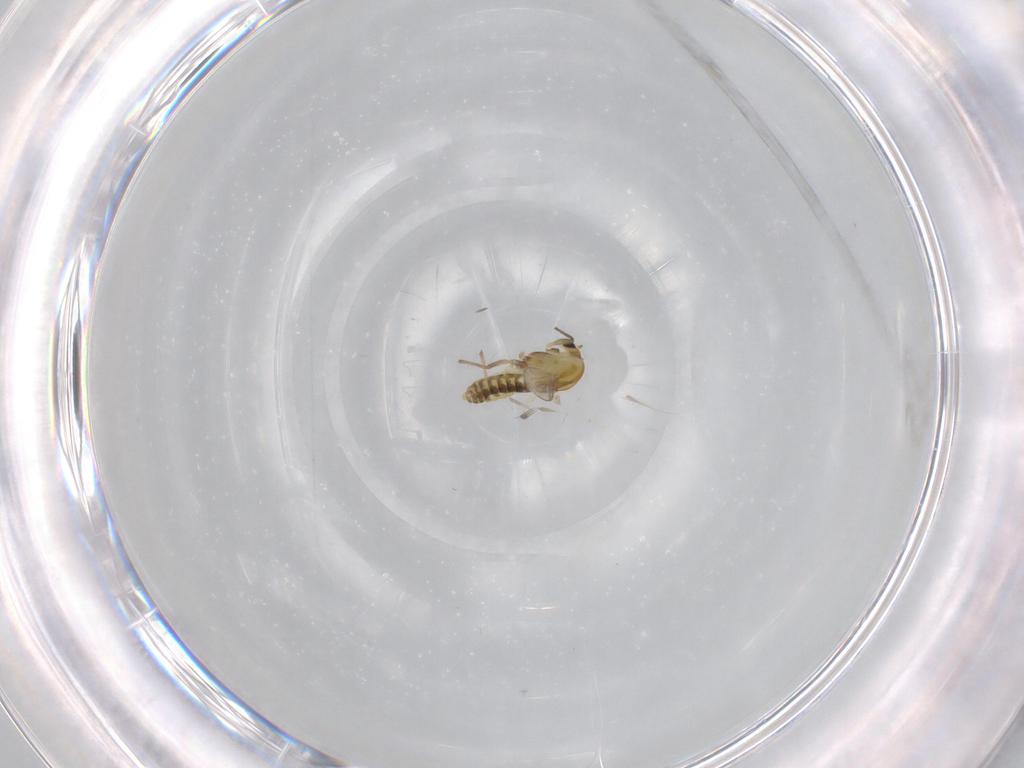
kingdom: Animalia
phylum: Arthropoda
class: Insecta
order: Diptera
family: Chironomidae
